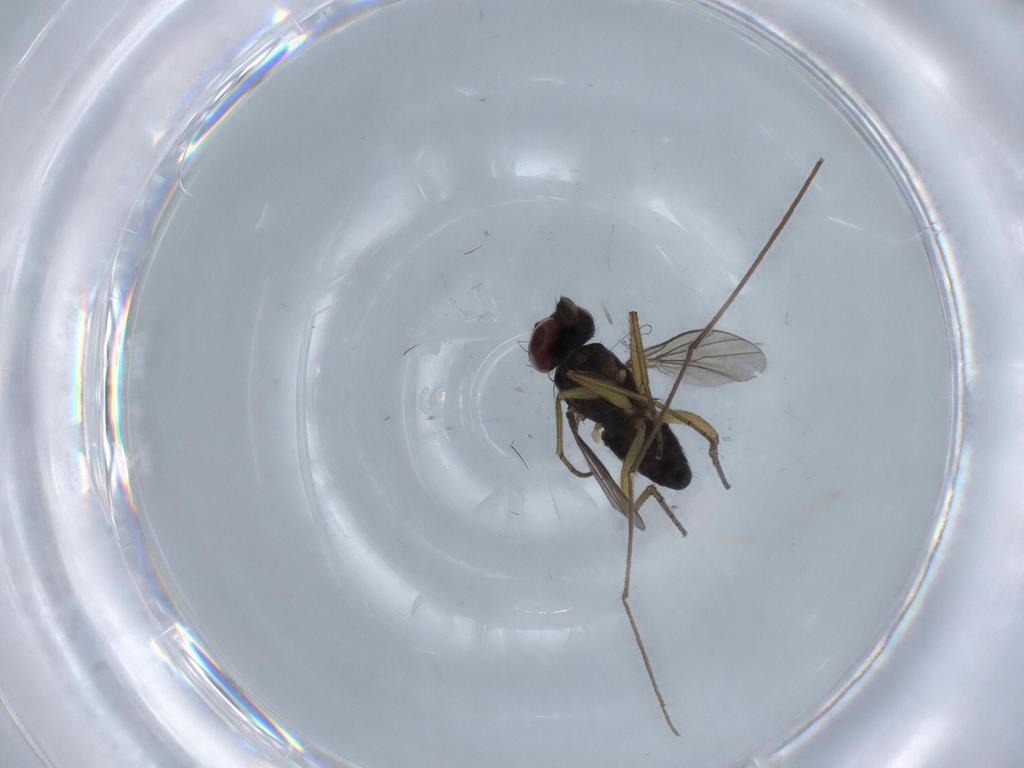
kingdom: Animalia
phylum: Arthropoda
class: Insecta
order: Diptera
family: Dolichopodidae
